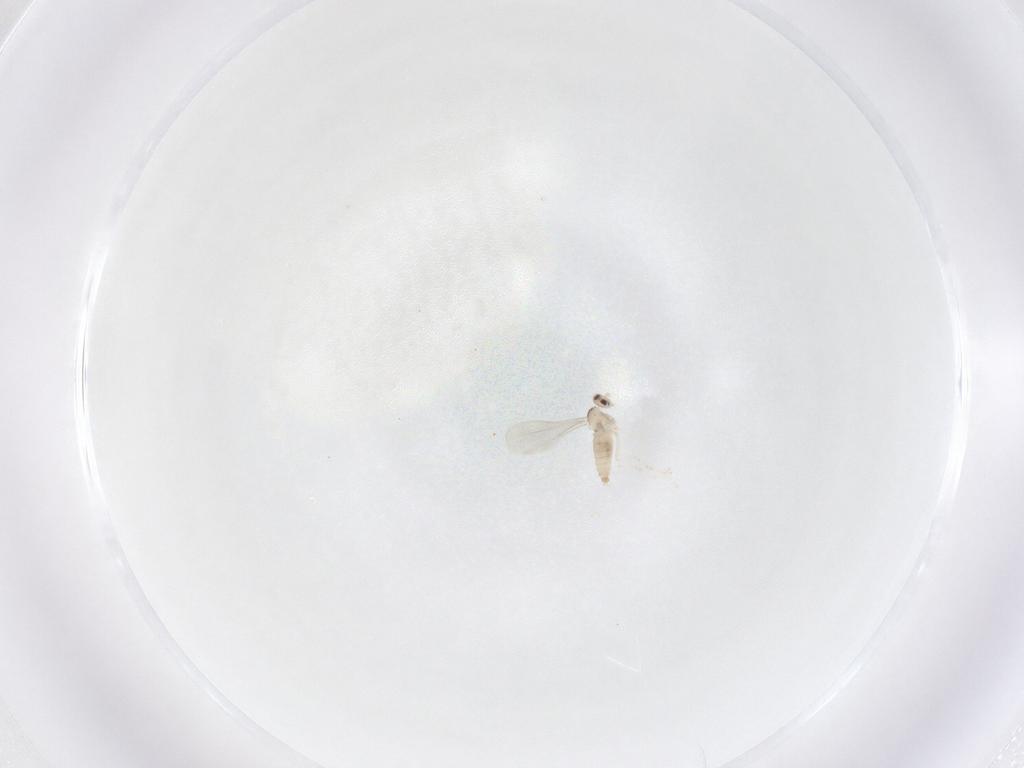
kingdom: Animalia
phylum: Arthropoda
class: Insecta
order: Diptera
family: Cecidomyiidae
